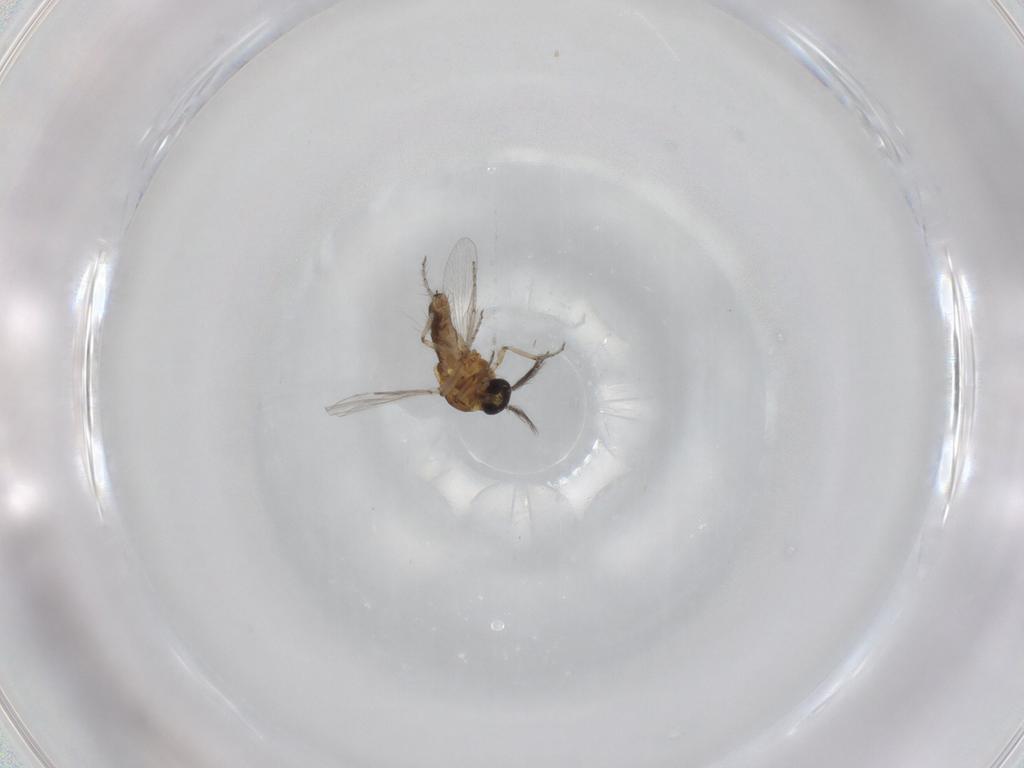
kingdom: Animalia
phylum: Arthropoda
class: Insecta
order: Diptera
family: Ceratopogonidae
